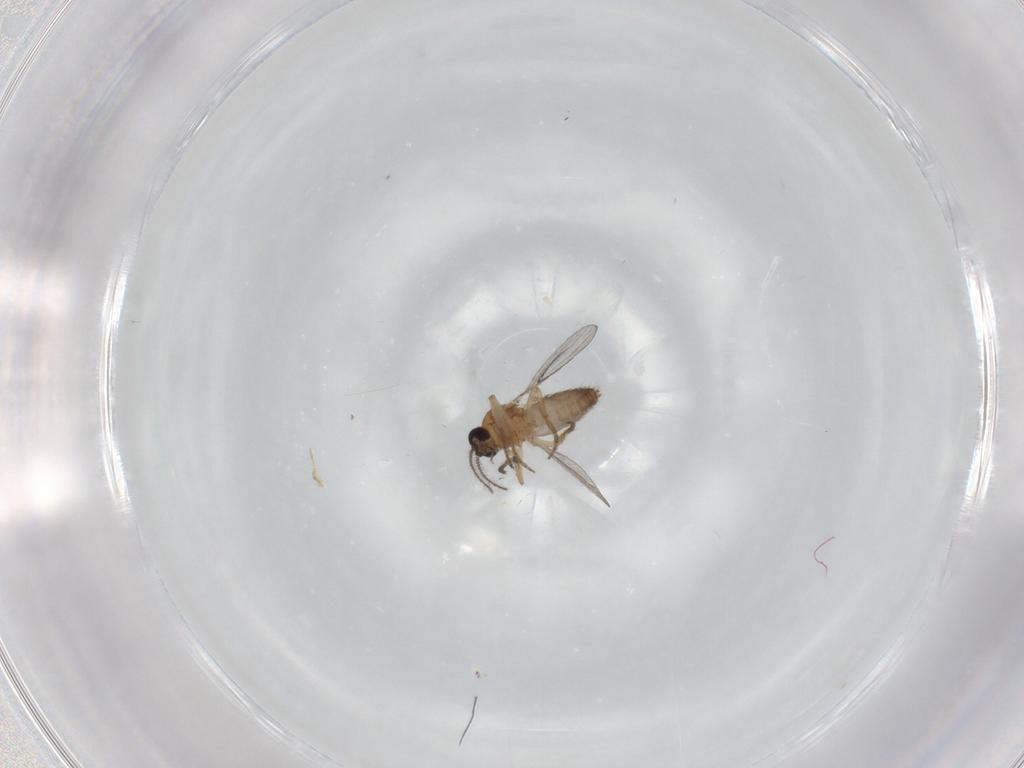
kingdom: Animalia
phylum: Arthropoda
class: Insecta
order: Diptera
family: Chironomidae
